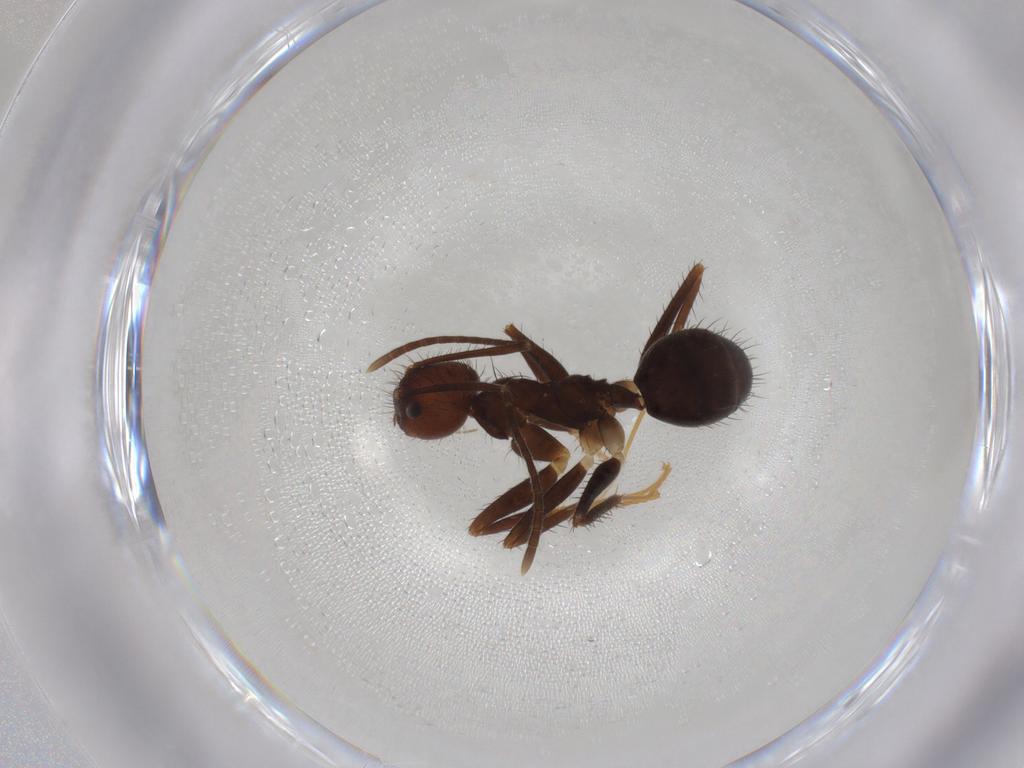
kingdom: Animalia
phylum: Arthropoda
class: Insecta
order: Hymenoptera
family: Formicidae
